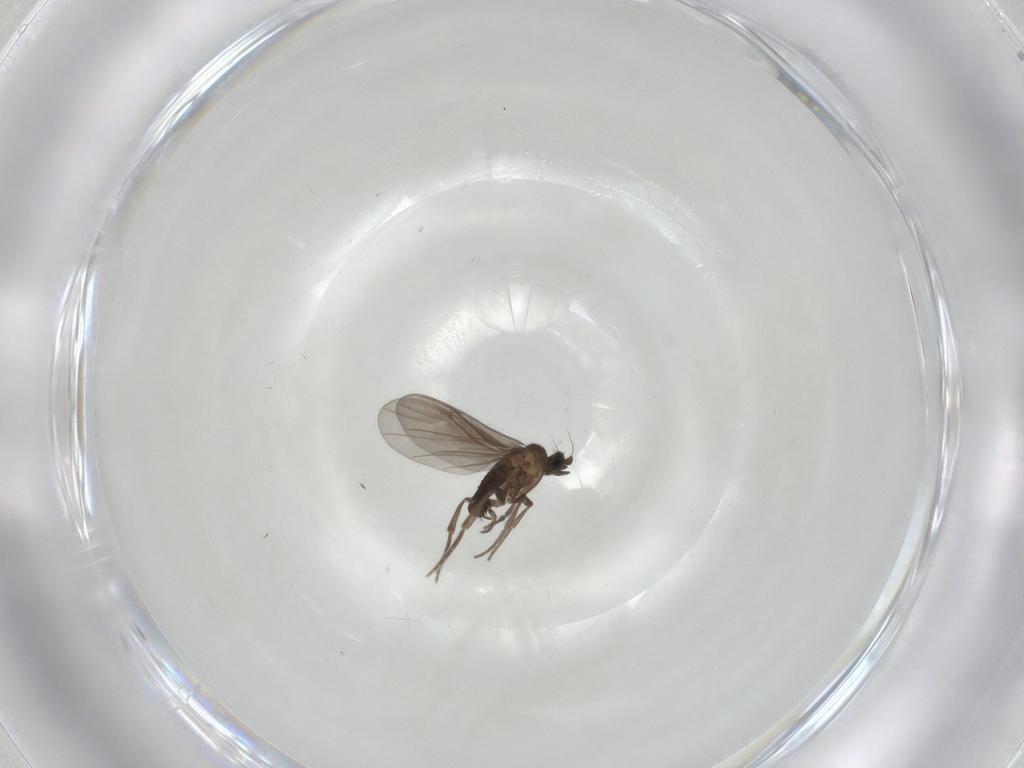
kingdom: Animalia
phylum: Arthropoda
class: Insecta
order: Diptera
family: Phoridae
